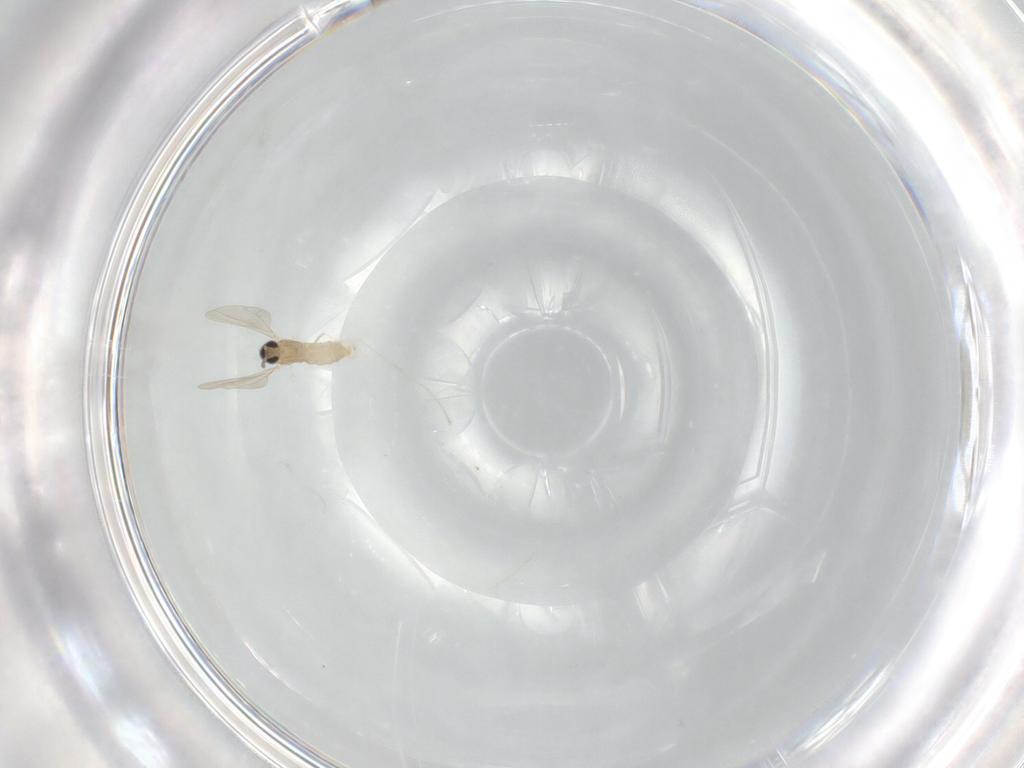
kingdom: Animalia
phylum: Arthropoda
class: Insecta
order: Diptera
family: Cecidomyiidae
